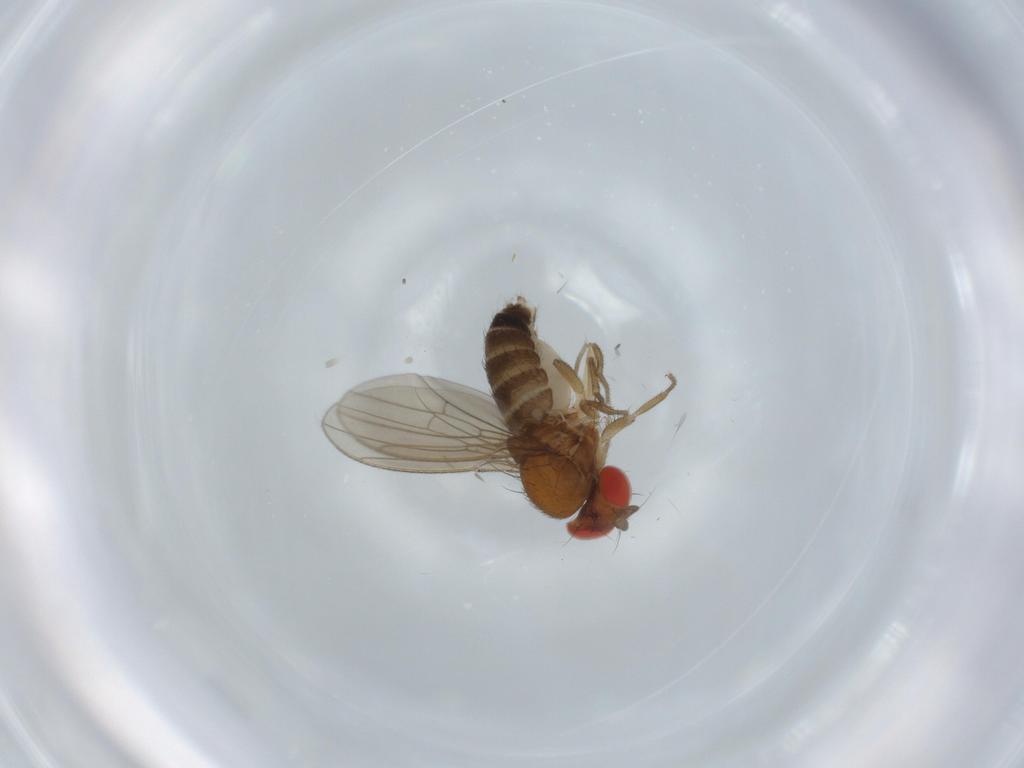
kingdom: Animalia
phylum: Arthropoda
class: Insecta
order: Diptera
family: Drosophilidae
